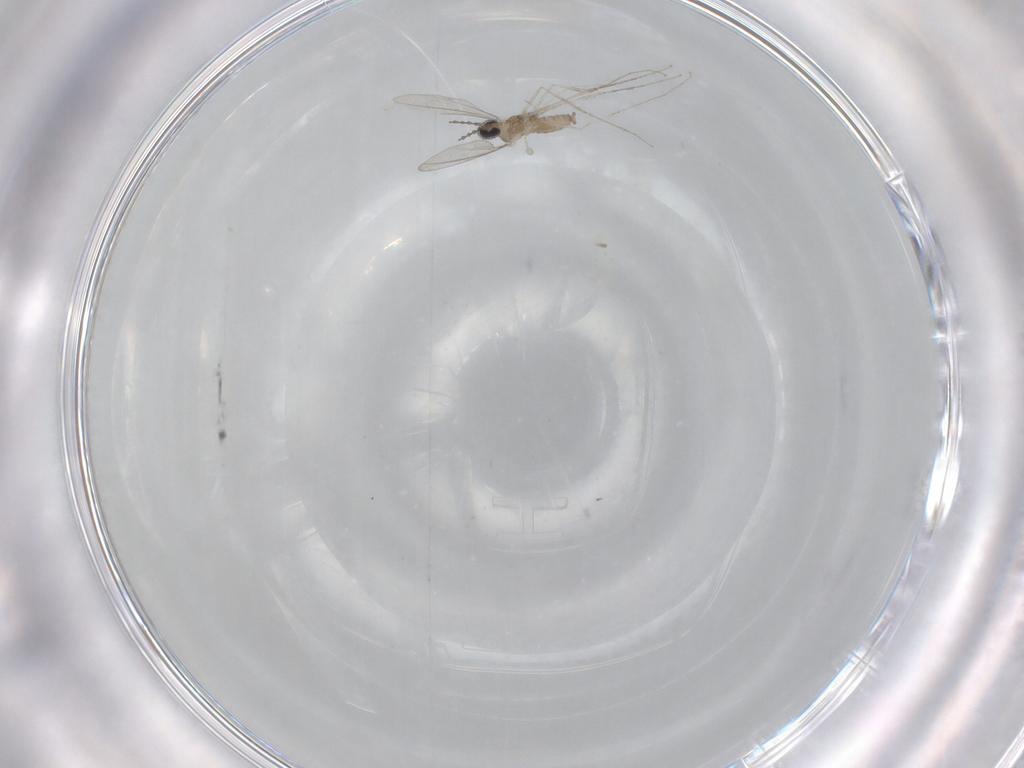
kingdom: Animalia
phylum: Arthropoda
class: Insecta
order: Diptera
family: Cecidomyiidae
